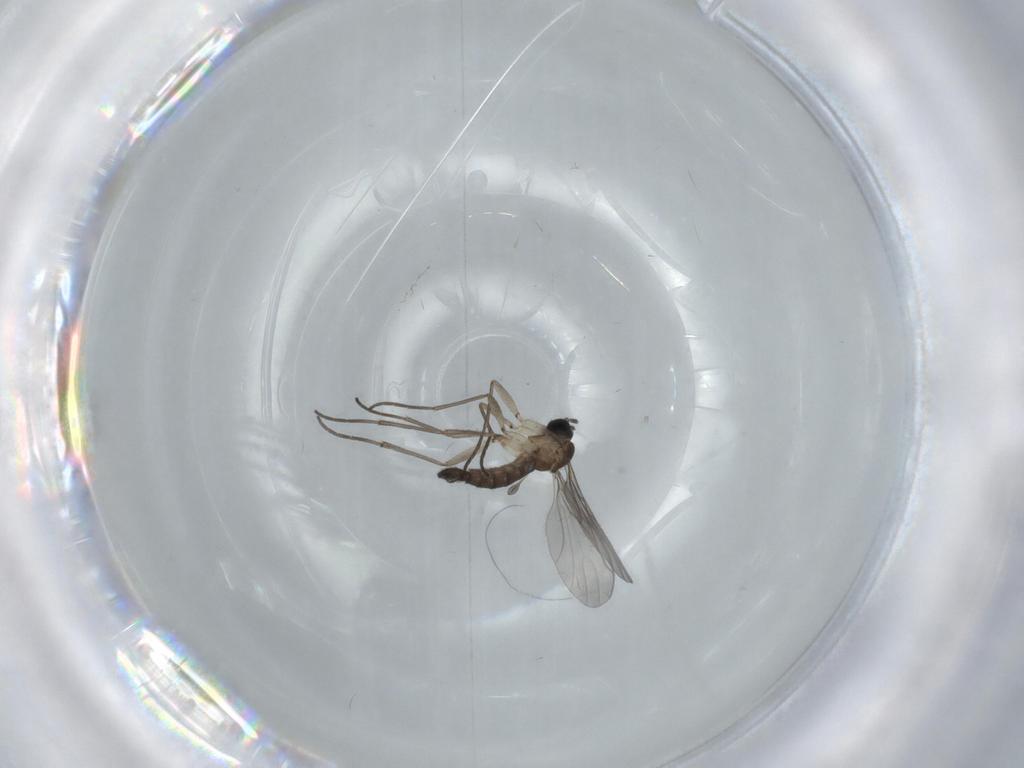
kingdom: Animalia
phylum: Arthropoda
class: Insecta
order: Diptera
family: Sciaridae
